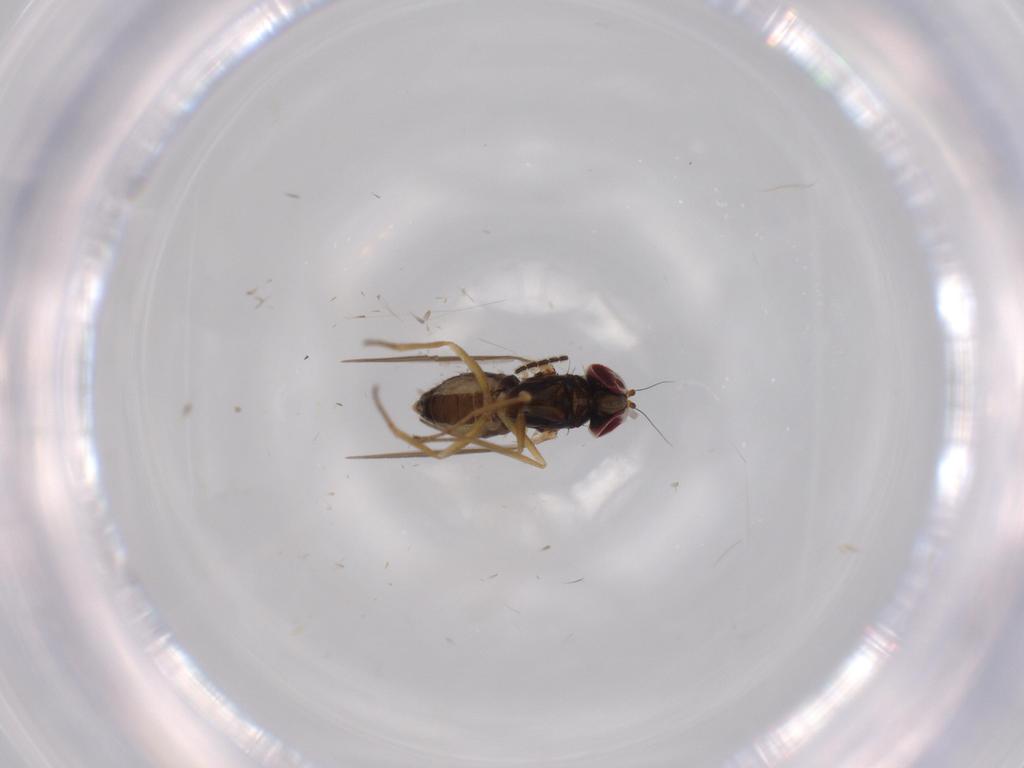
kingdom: Animalia
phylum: Arthropoda
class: Insecta
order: Diptera
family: Dolichopodidae
